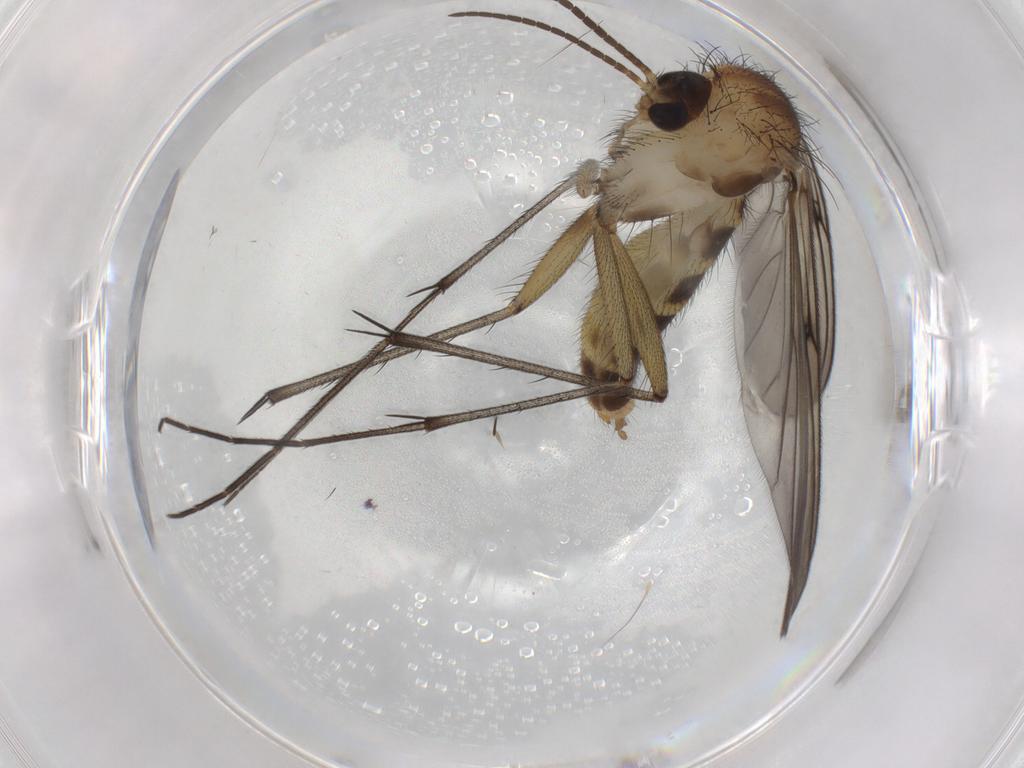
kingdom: Animalia
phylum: Arthropoda
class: Insecta
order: Diptera
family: Mycetophilidae
